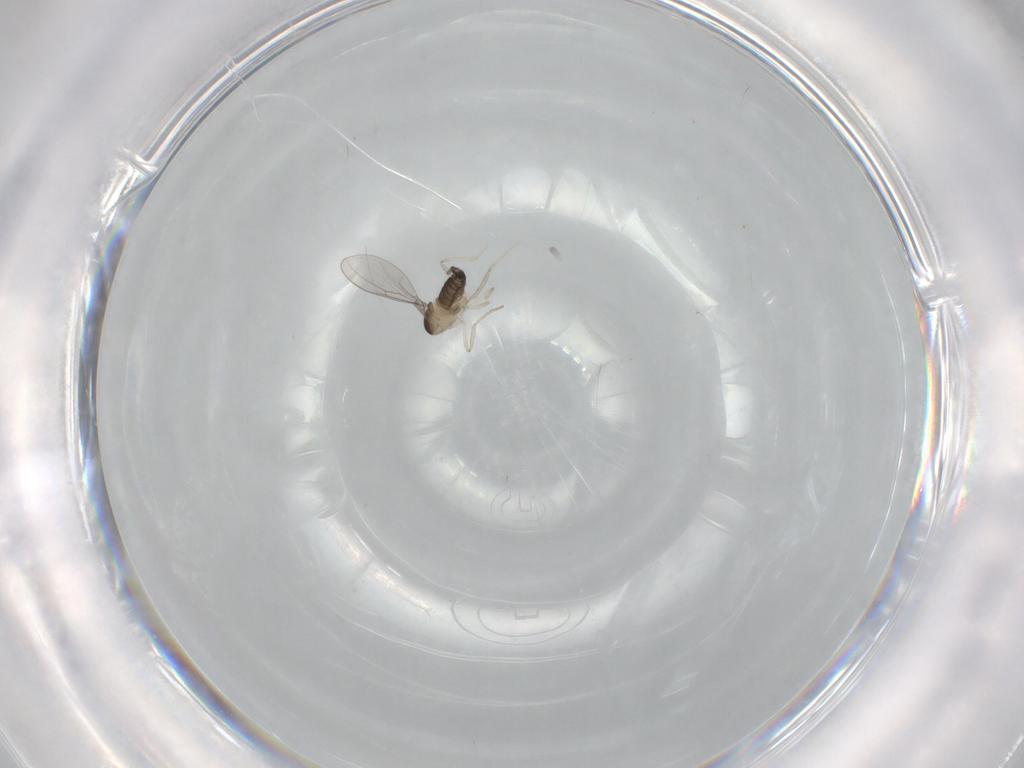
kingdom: Animalia
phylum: Arthropoda
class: Insecta
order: Diptera
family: Cecidomyiidae
